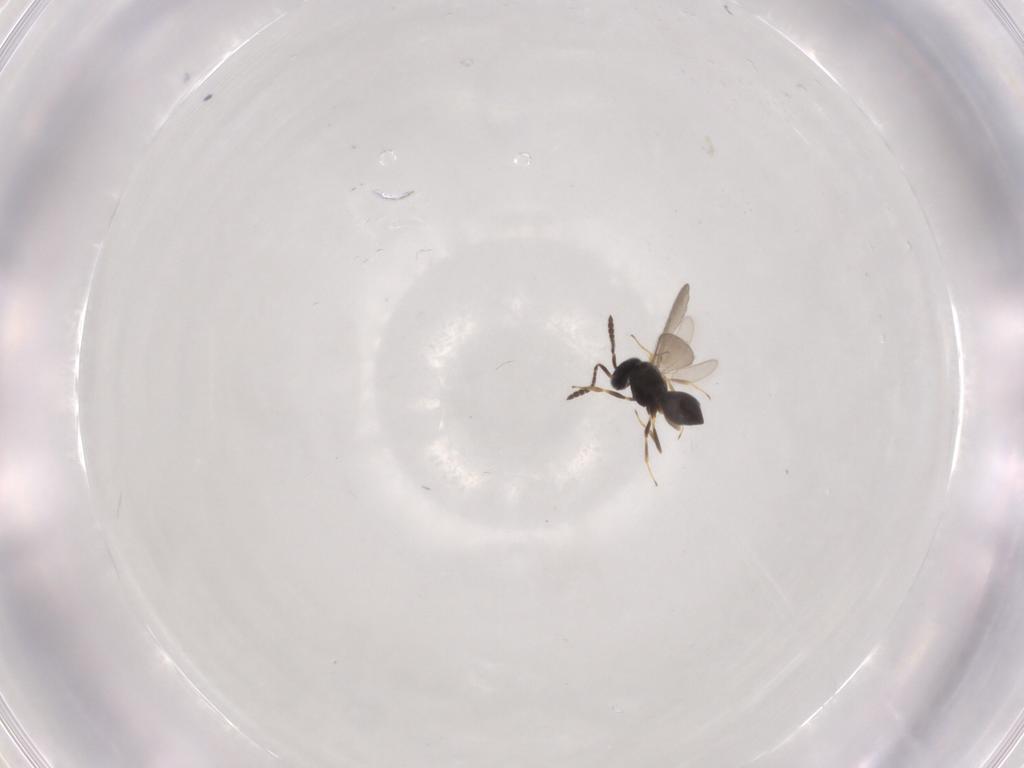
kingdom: Animalia
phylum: Arthropoda
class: Insecta
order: Hymenoptera
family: Scelionidae
